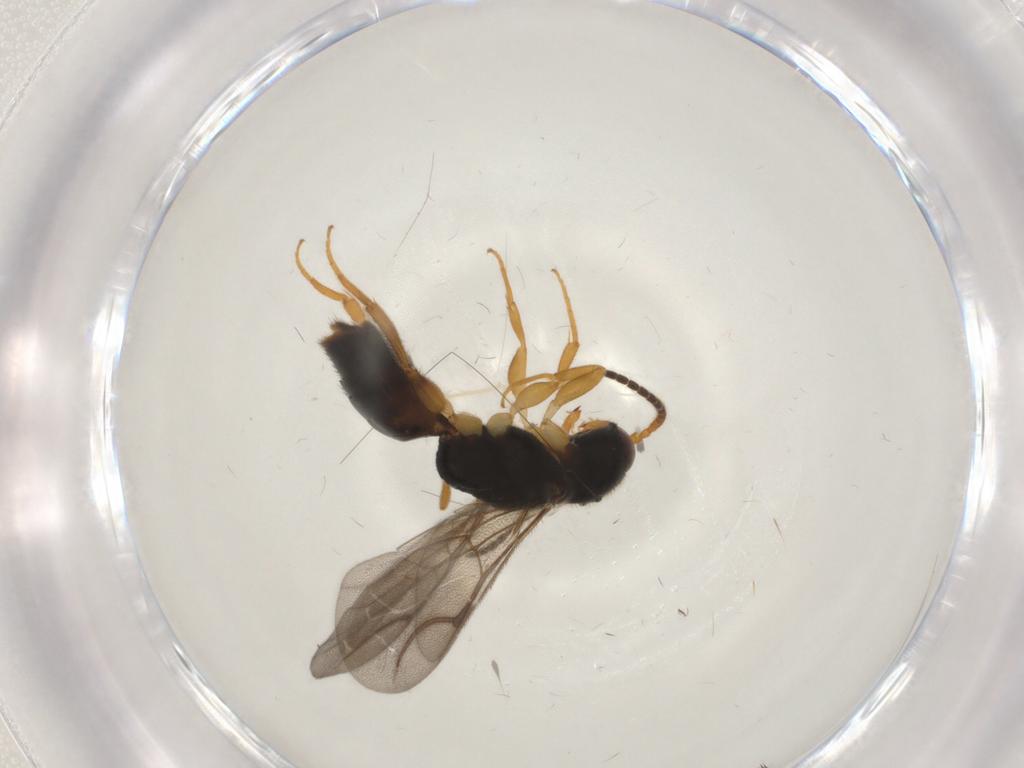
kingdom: Animalia
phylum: Arthropoda
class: Insecta
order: Hymenoptera
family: Bethylidae
